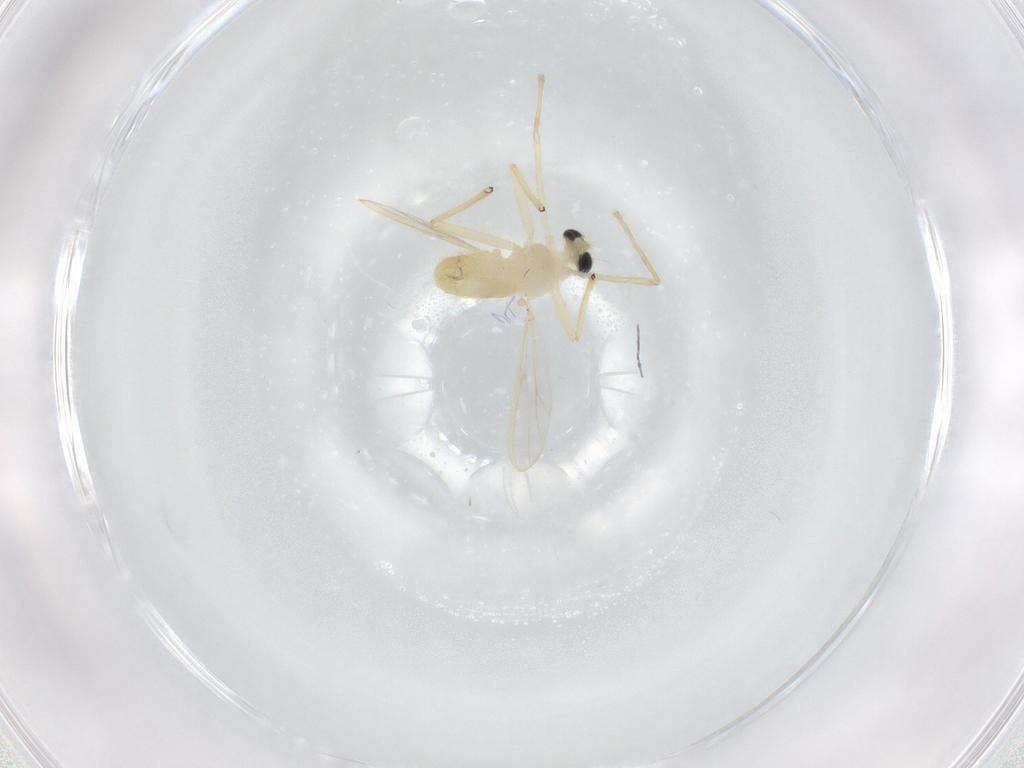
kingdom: Animalia
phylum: Arthropoda
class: Insecta
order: Diptera
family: Chironomidae
